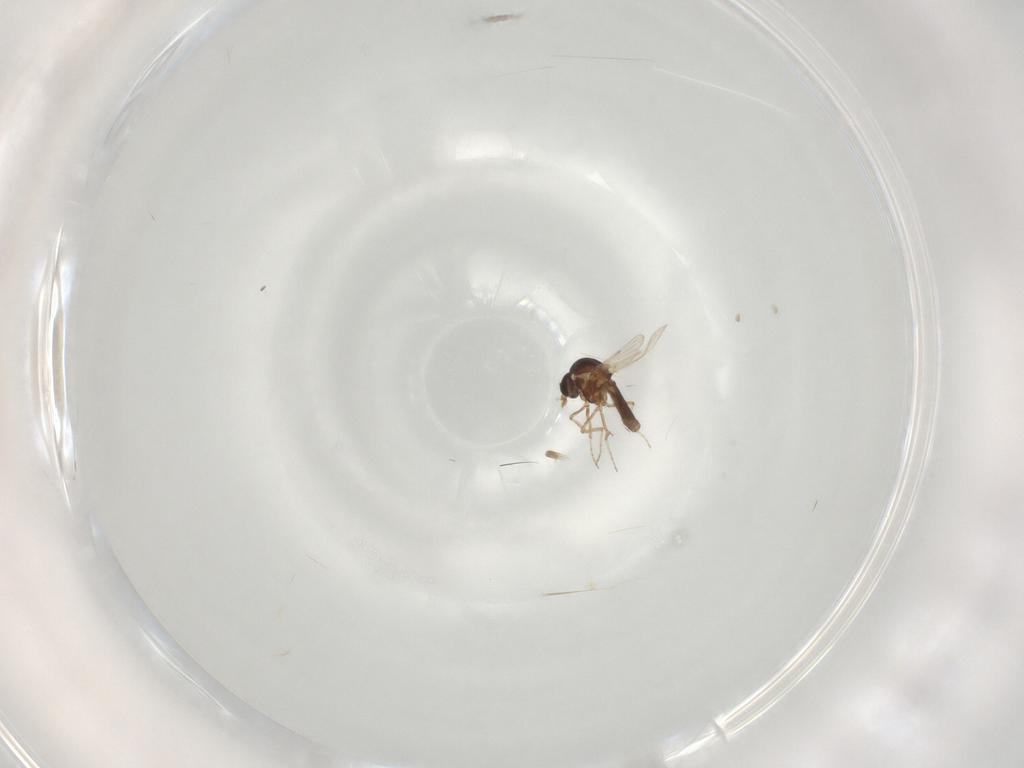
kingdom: Animalia
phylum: Arthropoda
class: Insecta
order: Diptera
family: Ceratopogonidae
